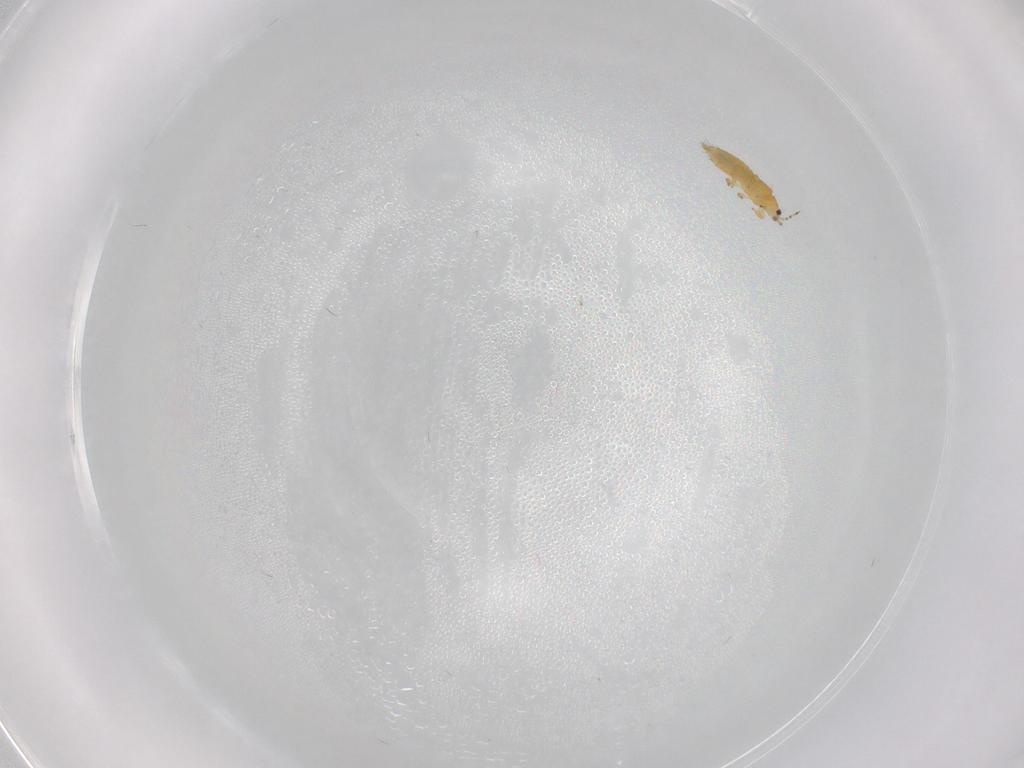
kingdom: Animalia
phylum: Arthropoda
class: Insecta
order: Thysanoptera
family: Thripidae
